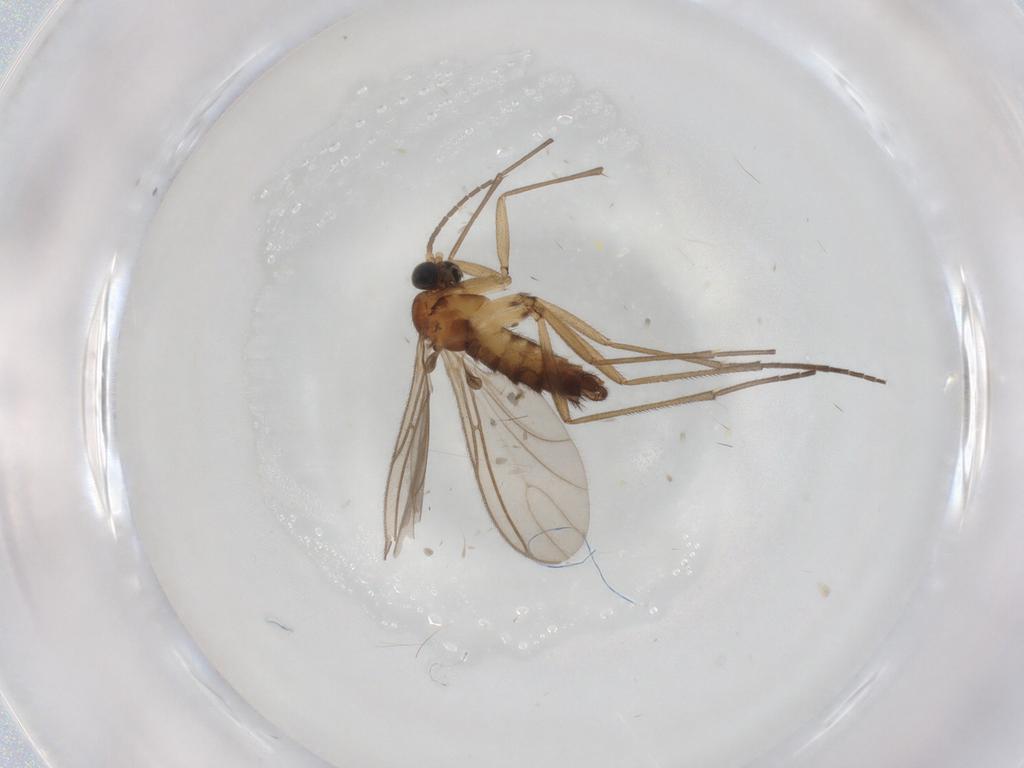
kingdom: Animalia
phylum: Arthropoda
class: Insecta
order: Diptera
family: Sciaridae
